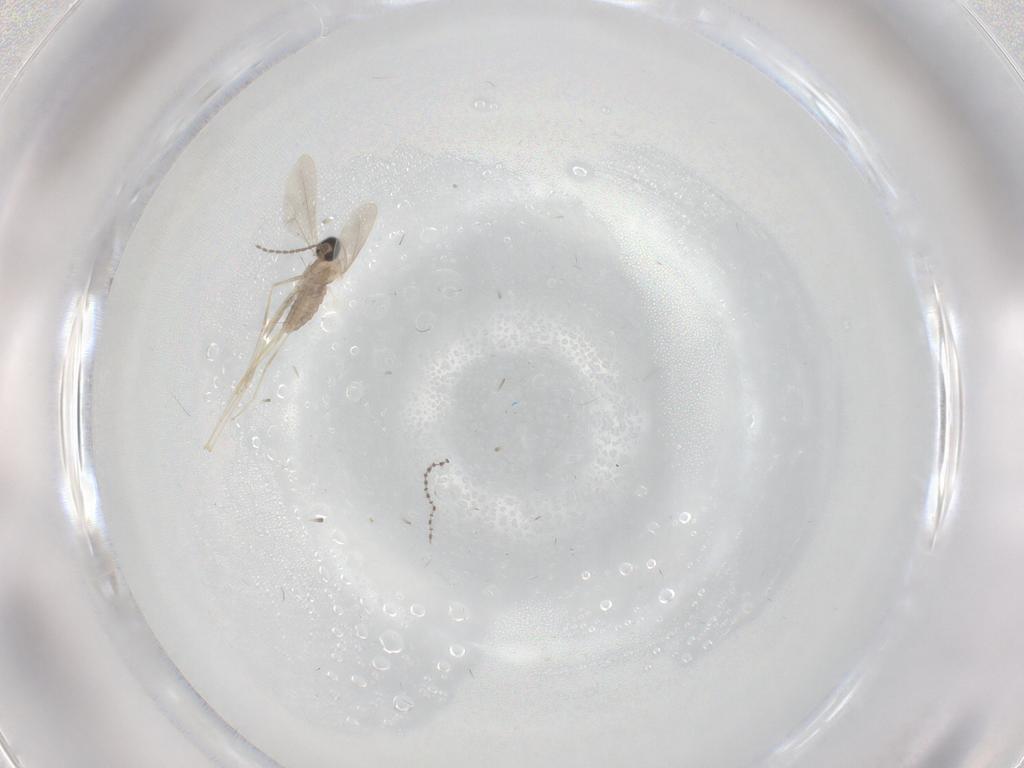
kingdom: Animalia
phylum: Arthropoda
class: Insecta
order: Diptera
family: Cecidomyiidae
